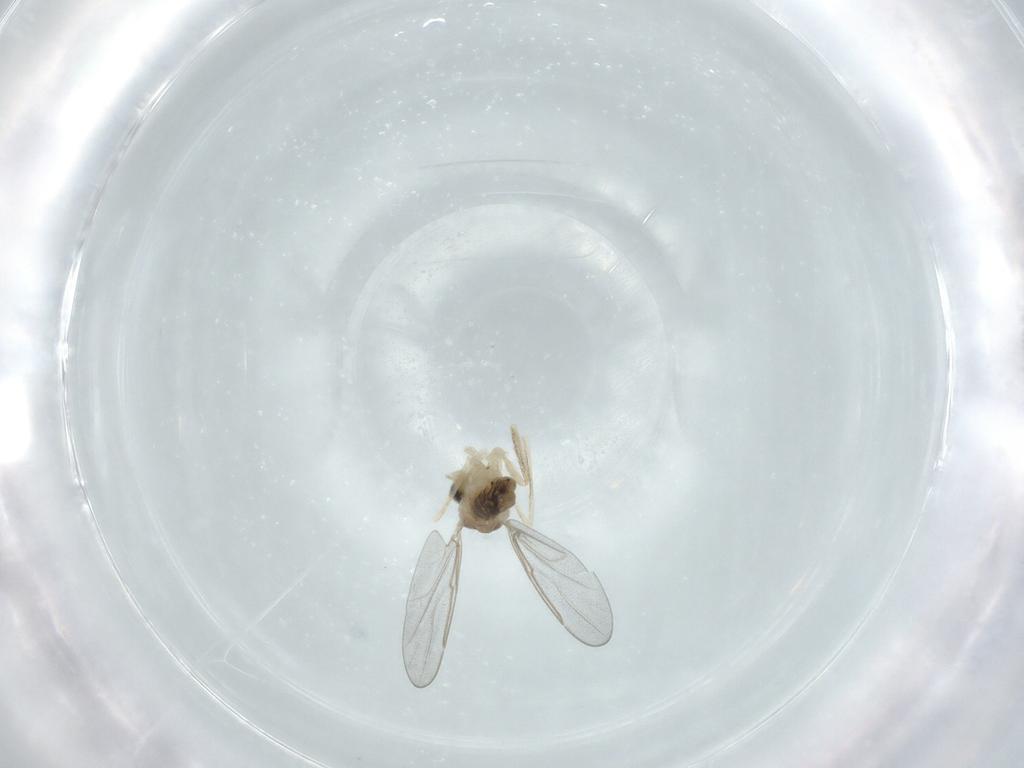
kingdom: Animalia
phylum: Arthropoda
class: Insecta
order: Diptera
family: Cecidomyiidae
